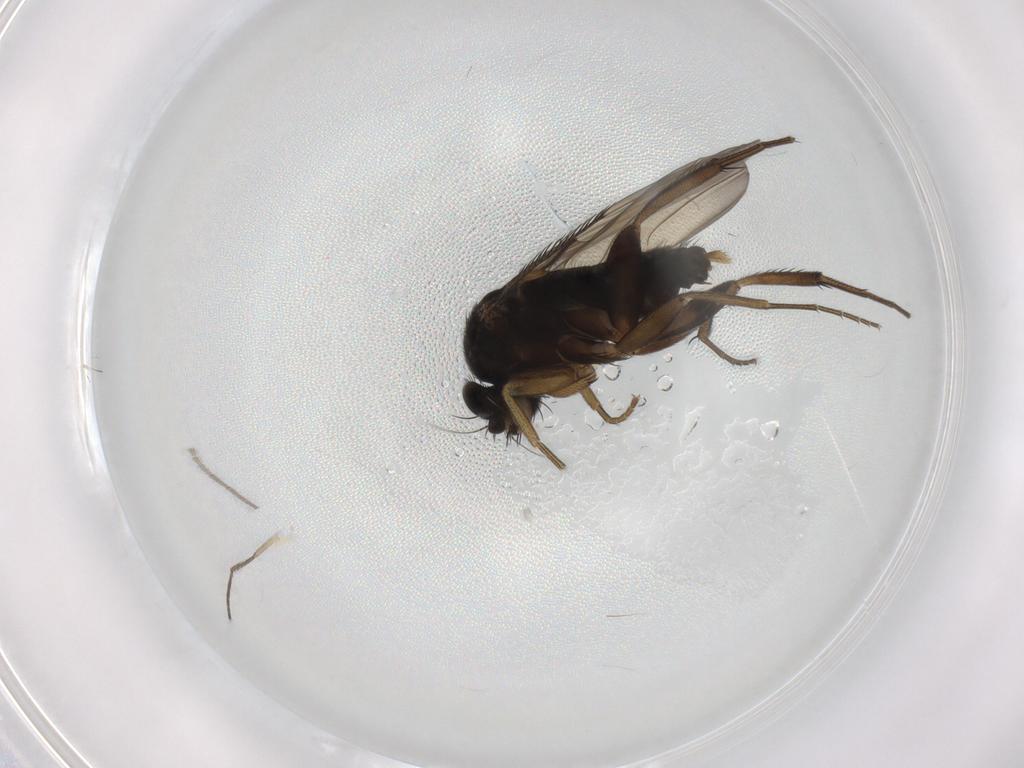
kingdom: Animalia
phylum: Arthropoda
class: Insecta
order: Diptera
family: Phoridae
